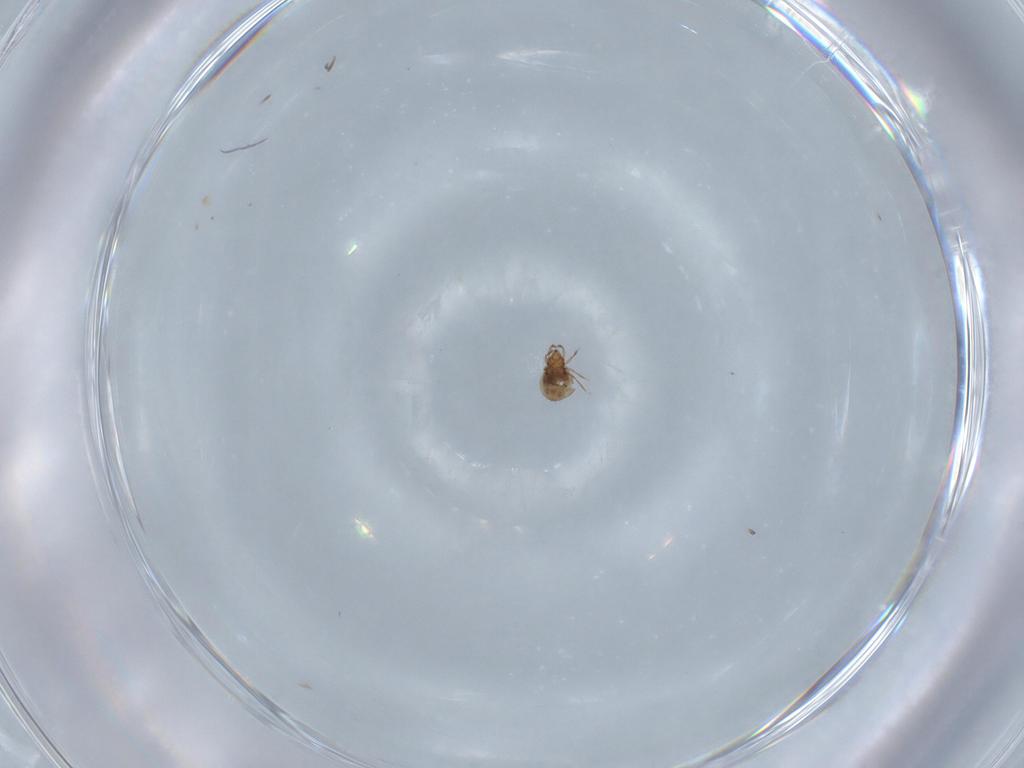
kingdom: Animalia
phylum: Arthropoda
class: Arachnida
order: Sarcoptiformes
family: Oribatulidae
